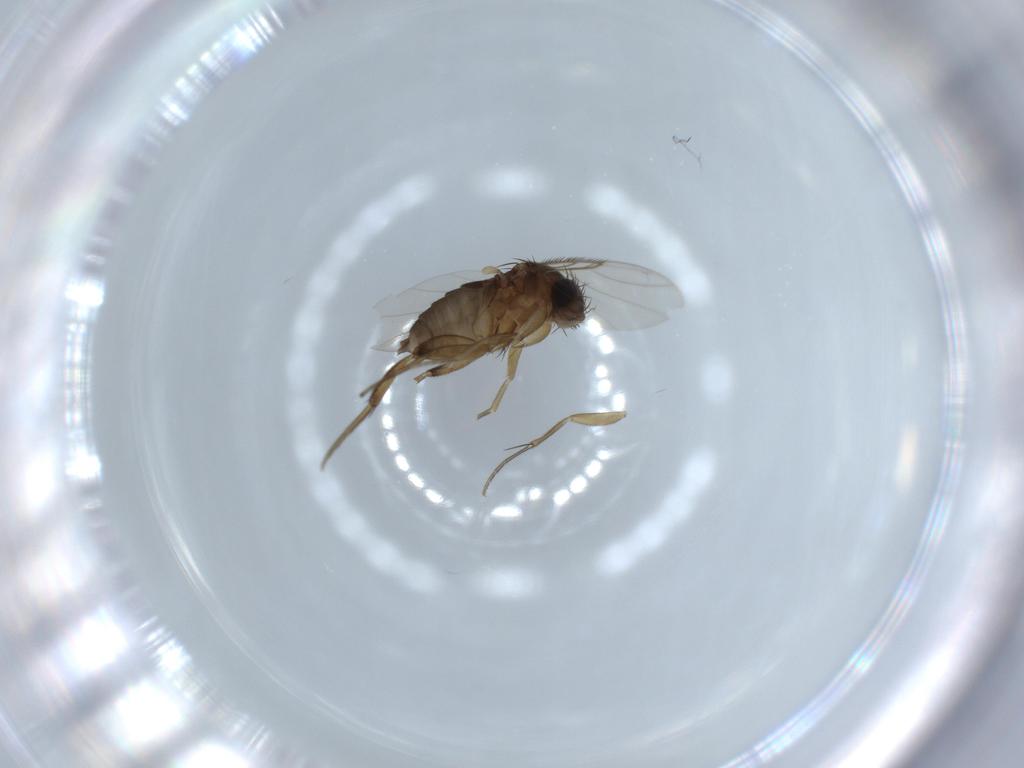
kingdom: Animalia
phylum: Arthropoda
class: Insecta
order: Diptera
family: Phoridae
